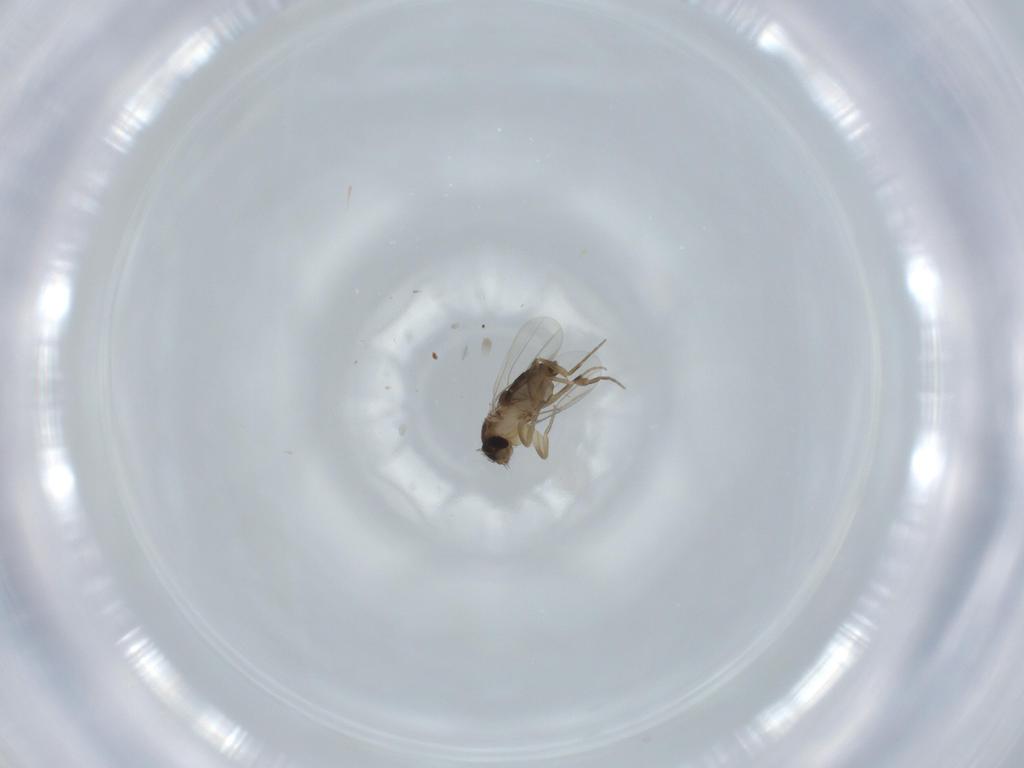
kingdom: Animalia
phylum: Arthropoda
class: Insecta
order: Diptera
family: Phoridae
